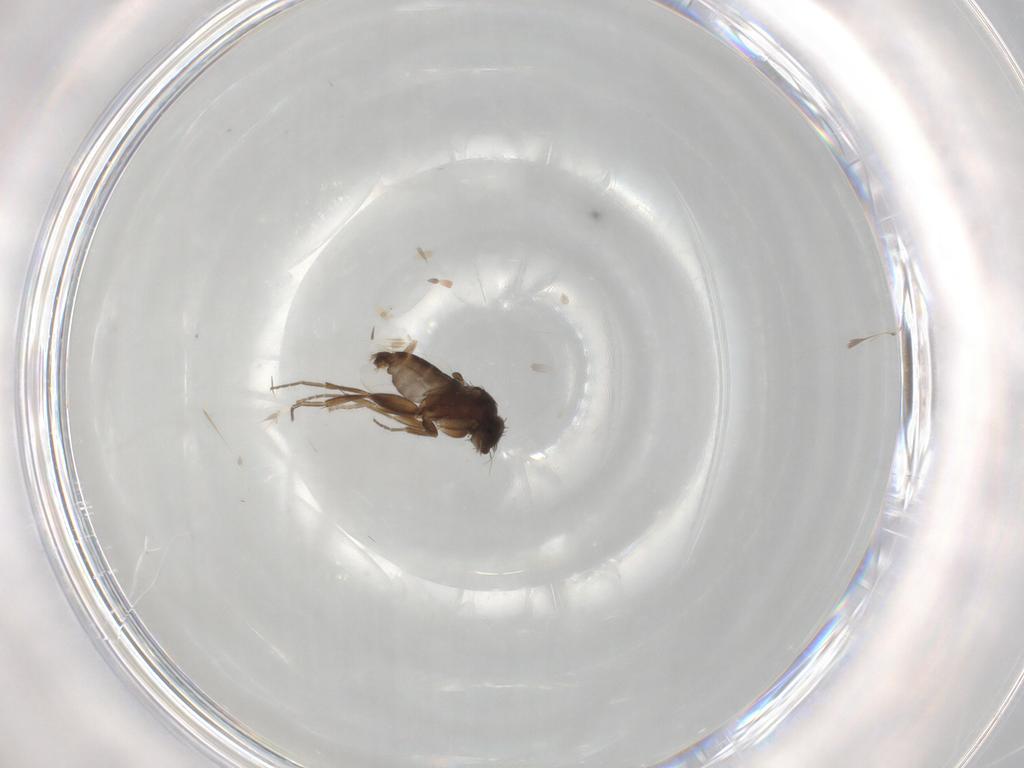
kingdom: Animalia
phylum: Arthropoda
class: Insecta
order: Diptera
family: Phoridae
